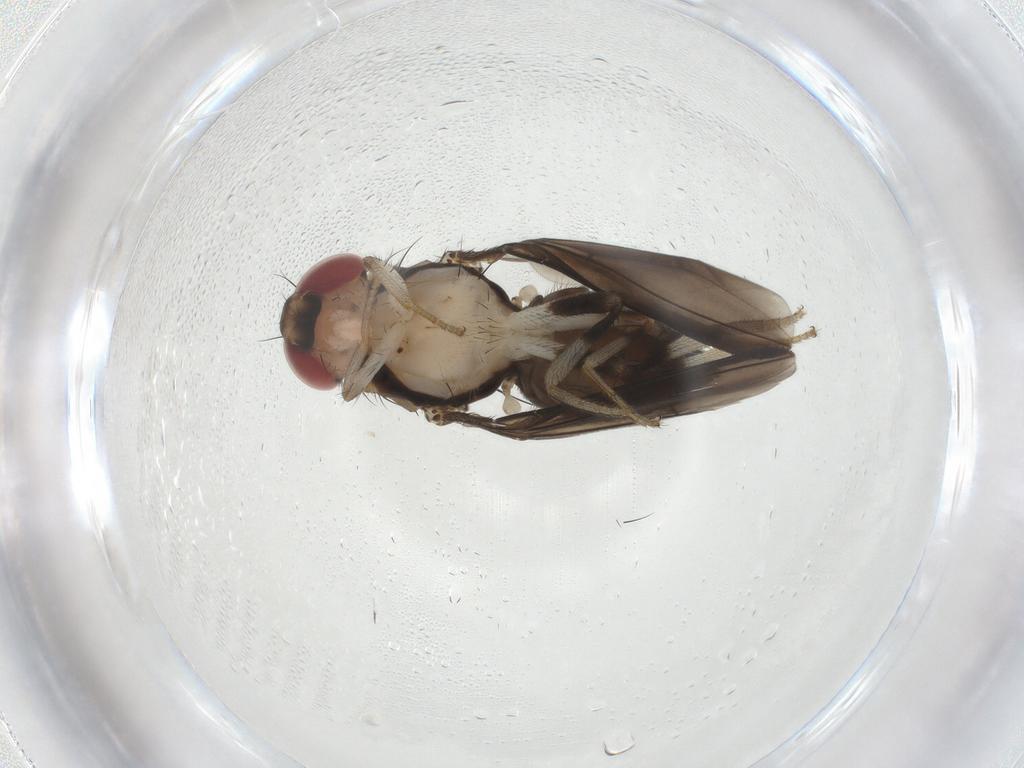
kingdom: Animalia
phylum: Arthropoda
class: Insecta
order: Diptera
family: Drosophilidae
